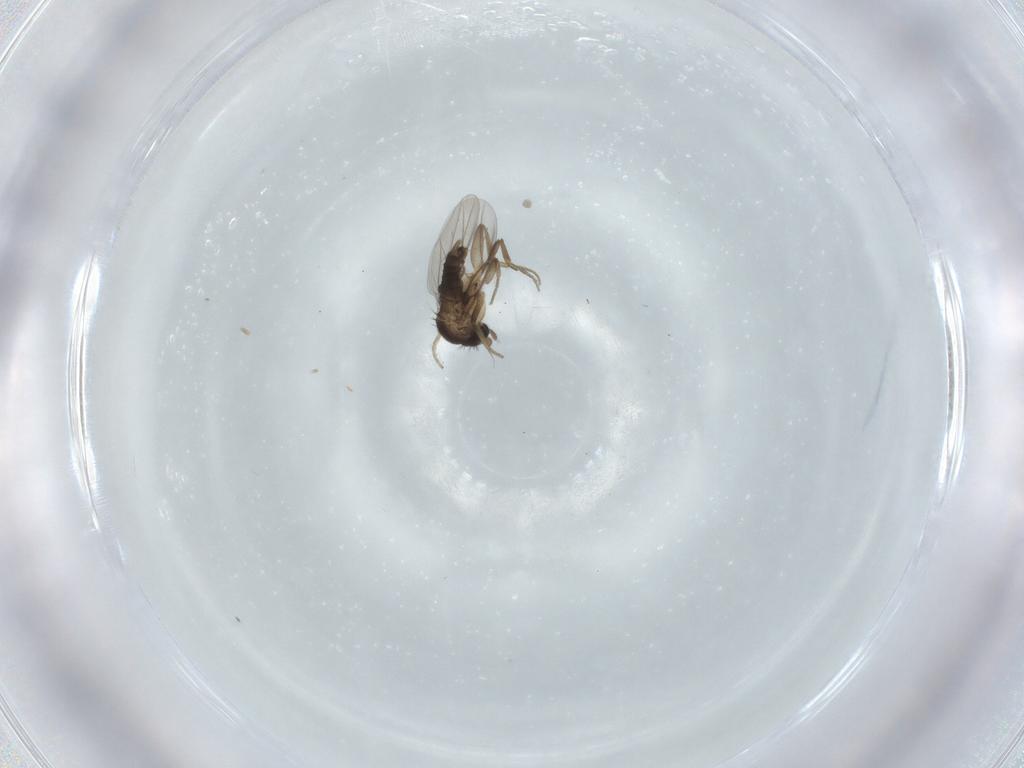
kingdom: Animalia
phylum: Arthropoda
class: Insecta
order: Diptera
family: Phoridae
